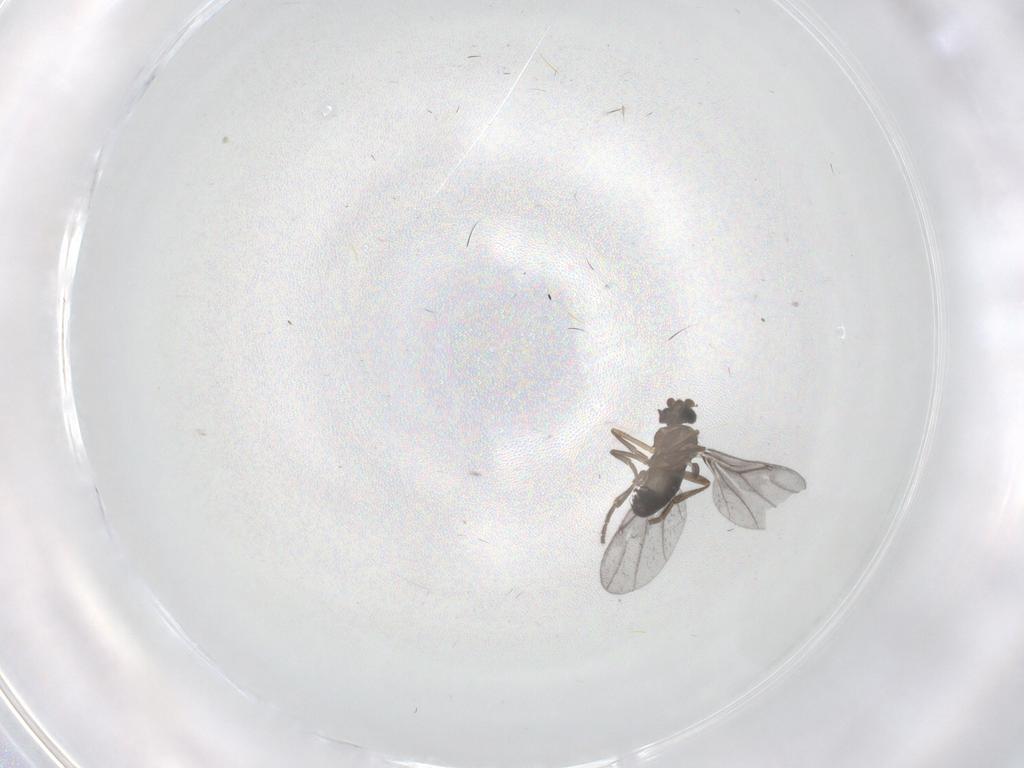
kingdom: Animalia
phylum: Arthropoda
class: Insecta
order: Diptera
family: Phoridae
